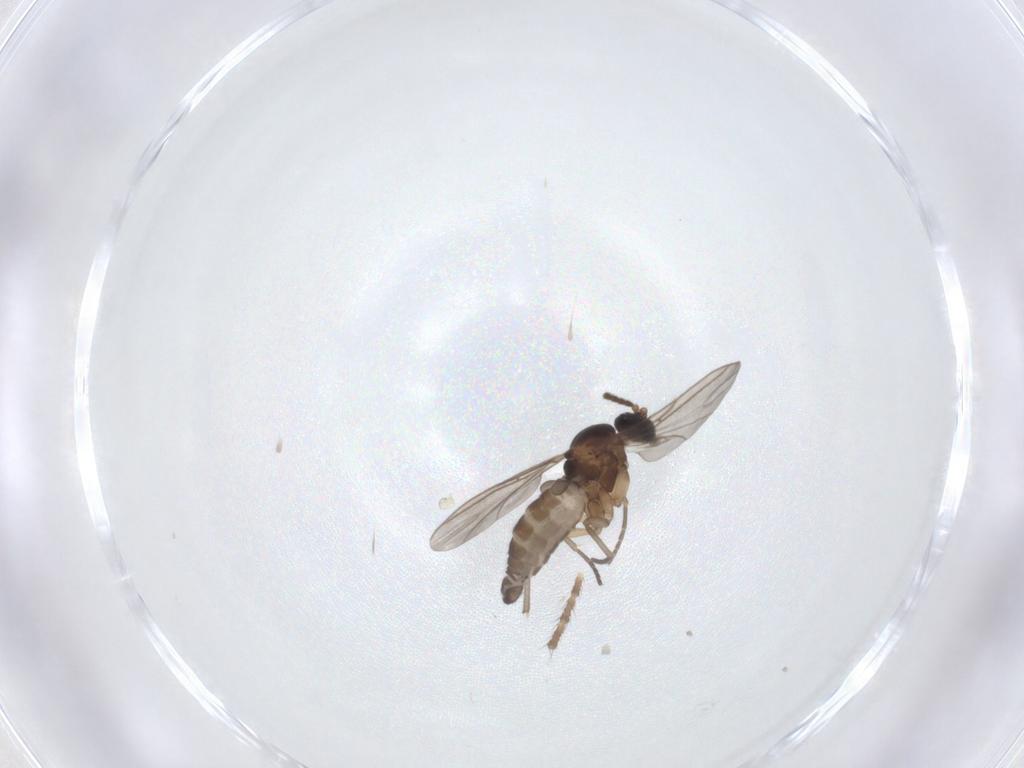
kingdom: Animalia
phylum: Arthropoda
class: Insecta
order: Diptera
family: Sciaridae
